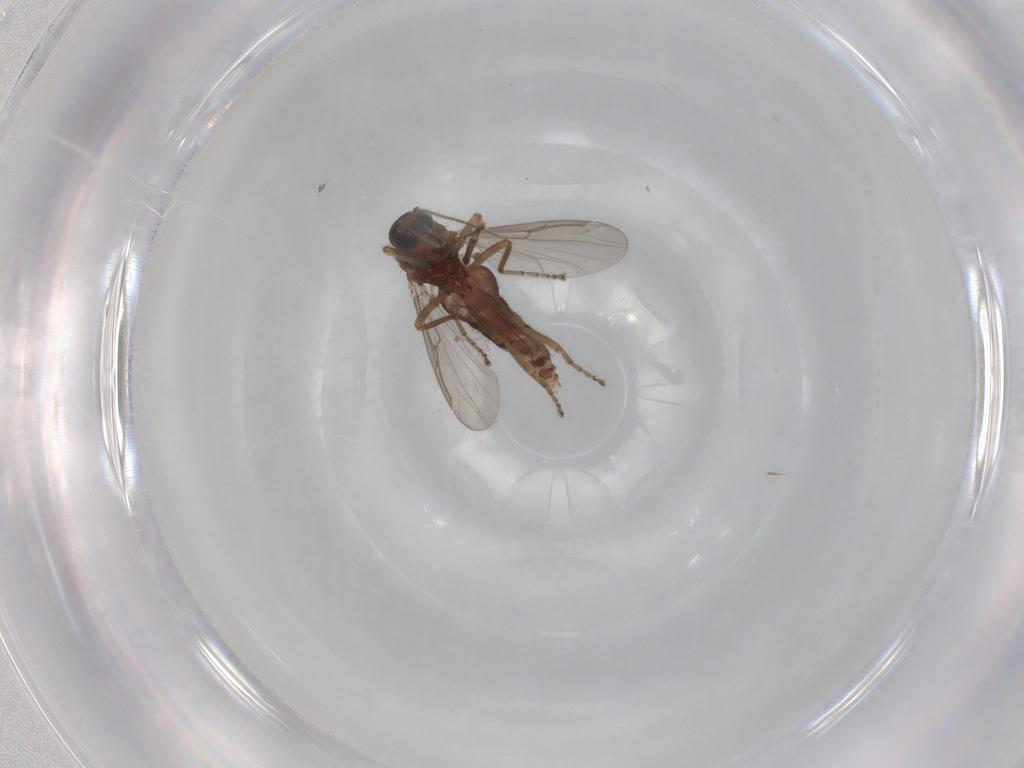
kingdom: Animalia
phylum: Arthropoda
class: Insecta
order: Diptera
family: Ceratopogonidae
